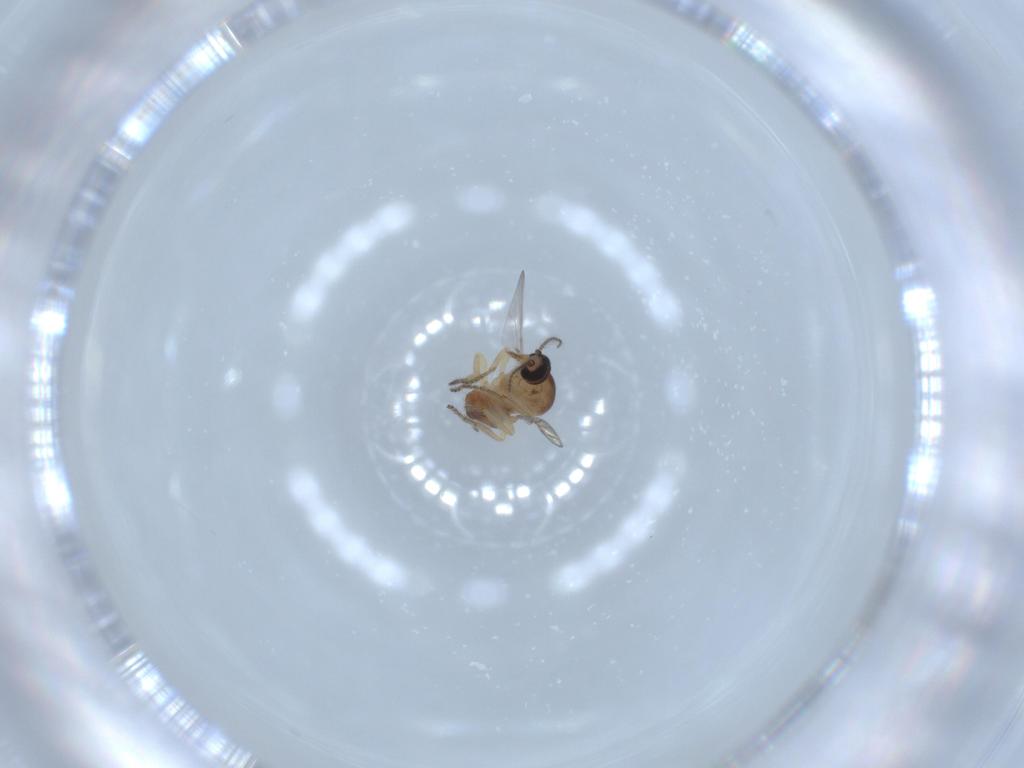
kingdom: Animalia
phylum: Arthropoda
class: Insecta
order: Diptera
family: Ceratopogonidae
